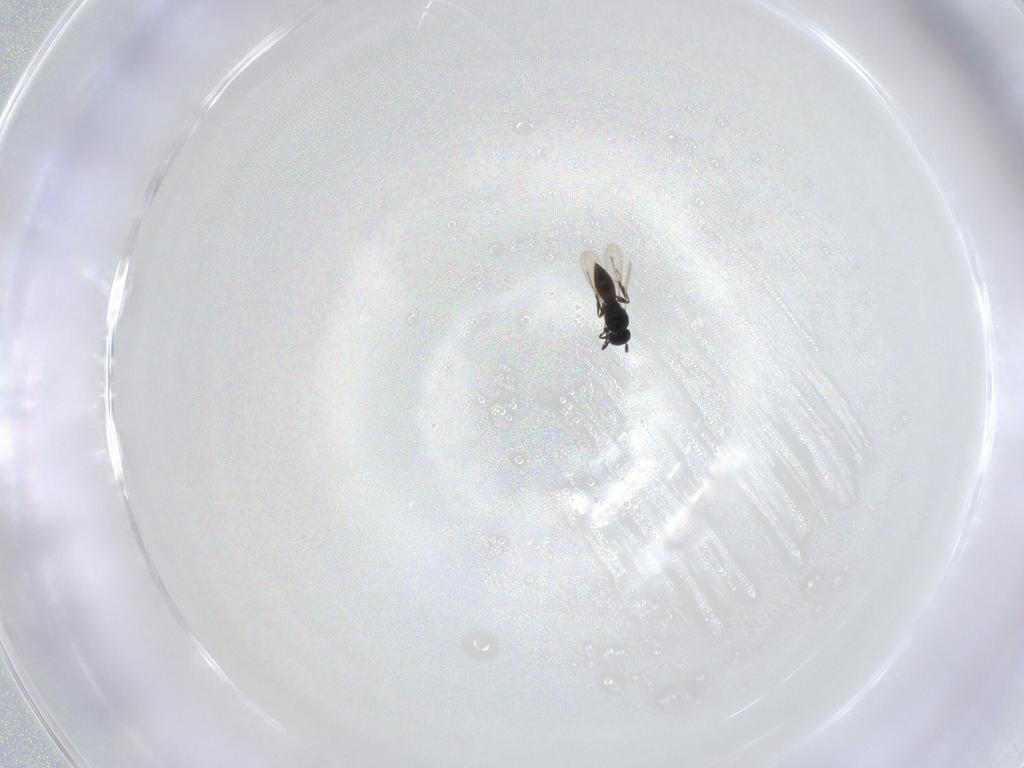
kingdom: Animalia
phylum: Arthropoda
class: Insecta
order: Hymenoptera
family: Scelionidae
